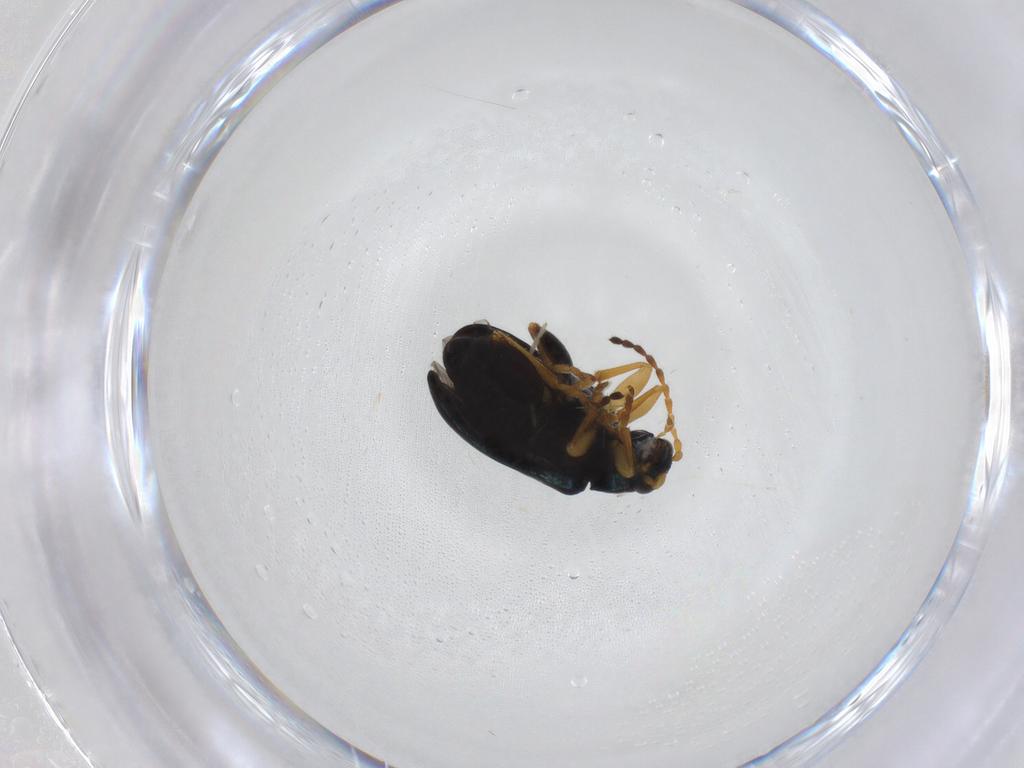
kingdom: Animalia
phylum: Arthropoda
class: Insecta
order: Coleoptera
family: Chrysomelidae
